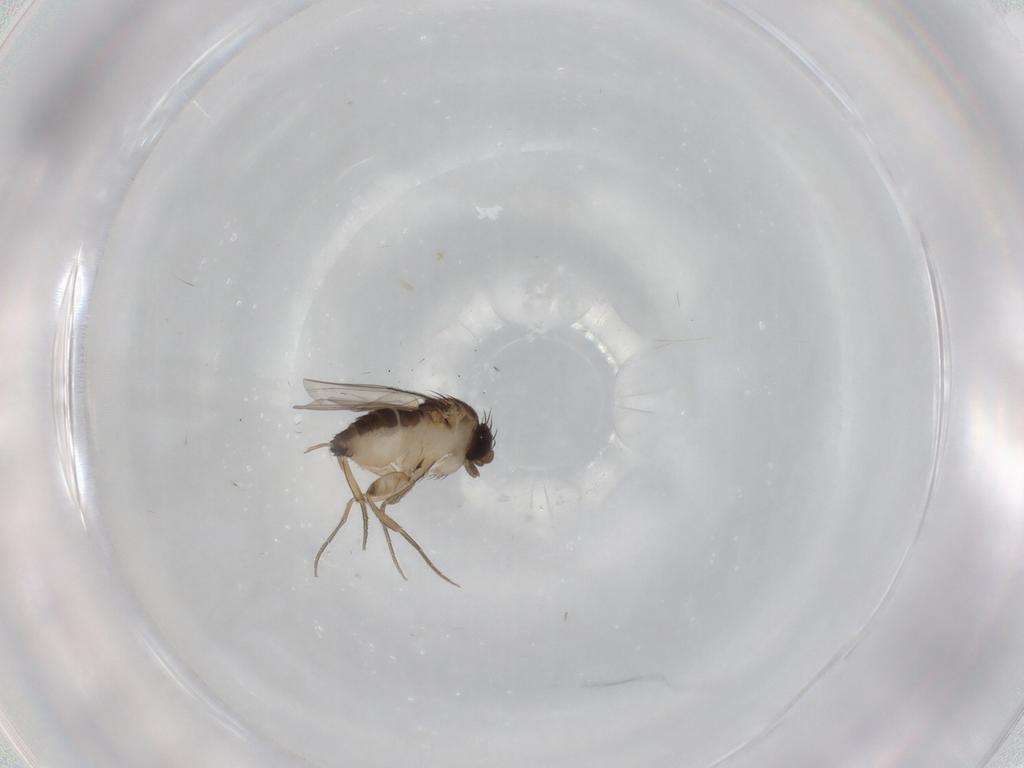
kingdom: Animalia
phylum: Arthropoda
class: Insecta
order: Diptera
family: Phoridae
